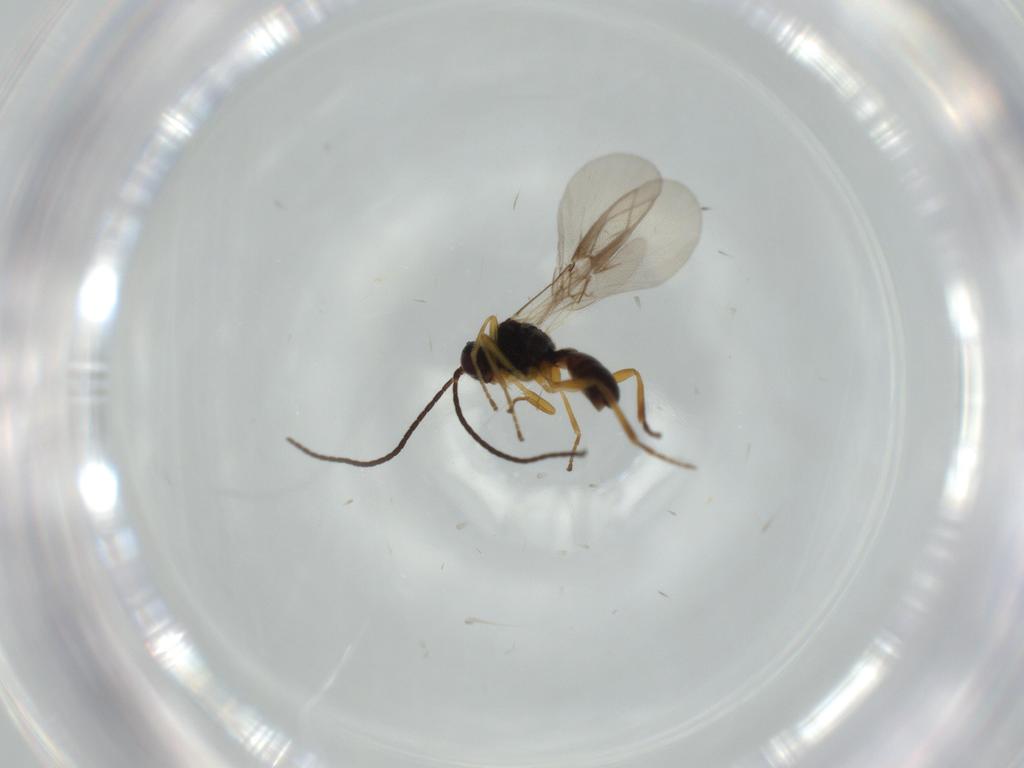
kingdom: Animalia
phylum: Arthropoda
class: Insecta
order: Hymenoptera
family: Braconidae
